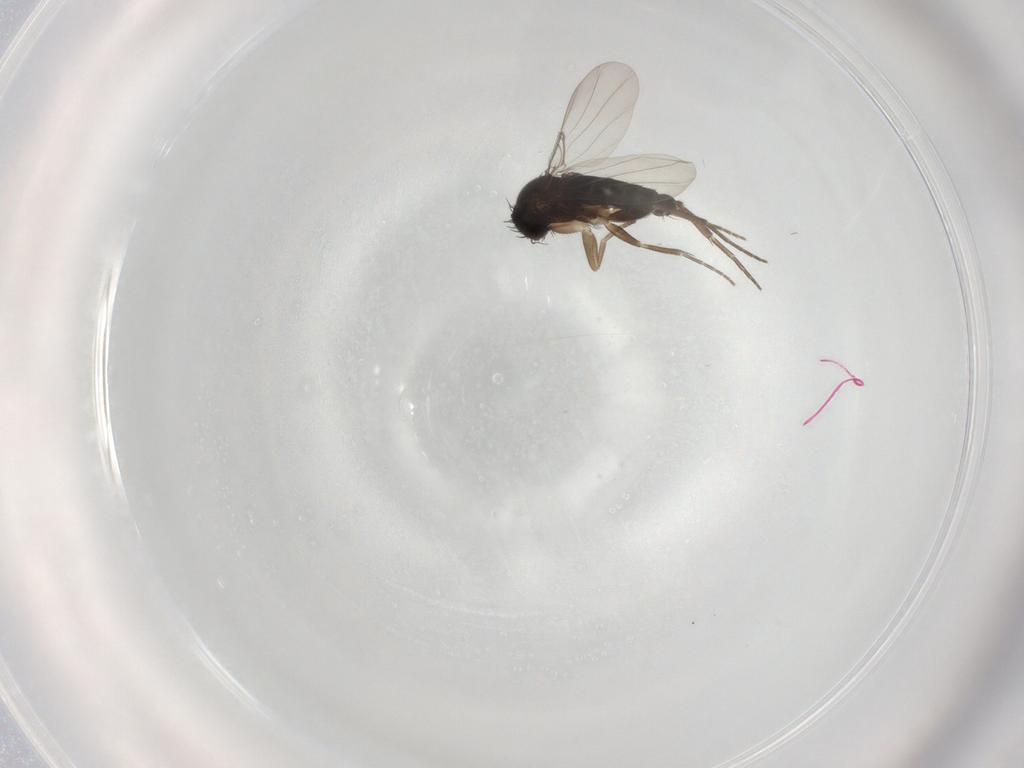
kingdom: Animalia
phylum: Arthropoda
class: Insecta
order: Diptera
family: Phoridae
